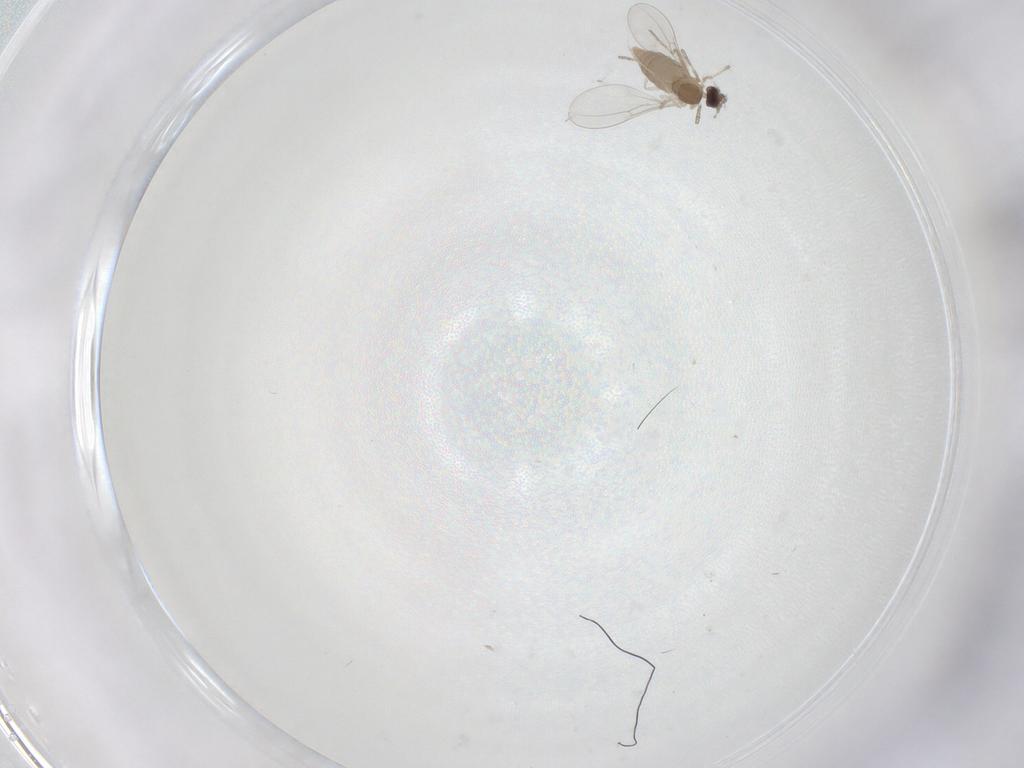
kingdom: Animalia
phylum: Arthropoda
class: Insecta
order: Diptera
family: Cecidomyiidae
